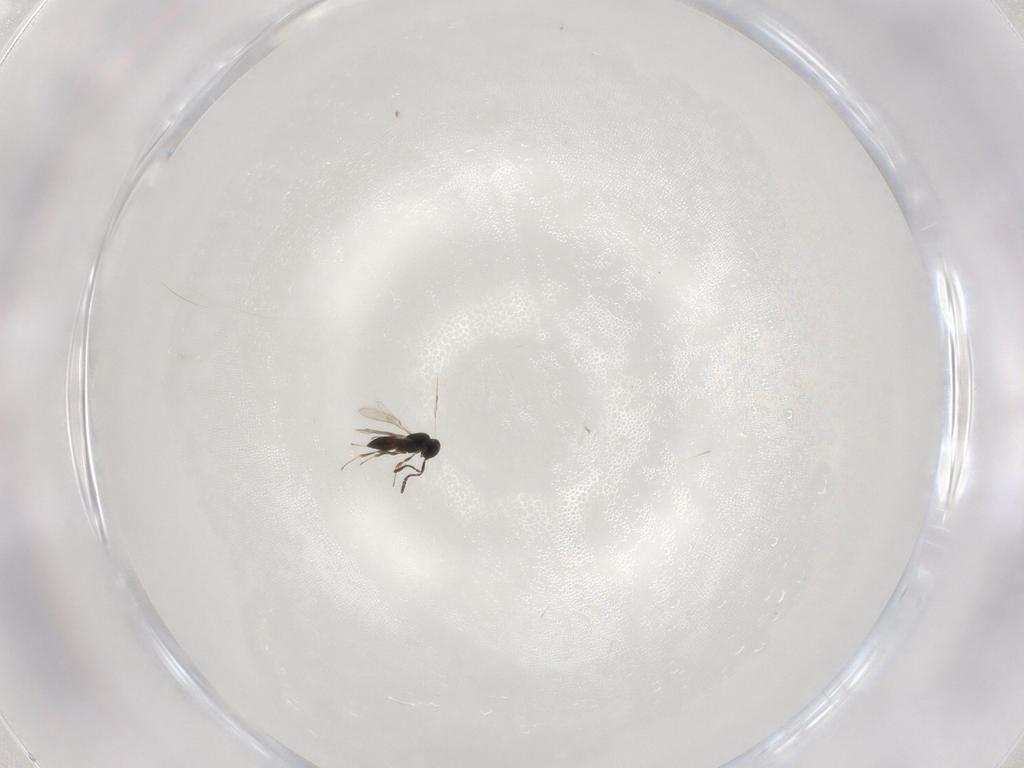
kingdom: Animalia
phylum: Arthropoda
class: Insecta
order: Hymenoptera
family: Scelionidae
